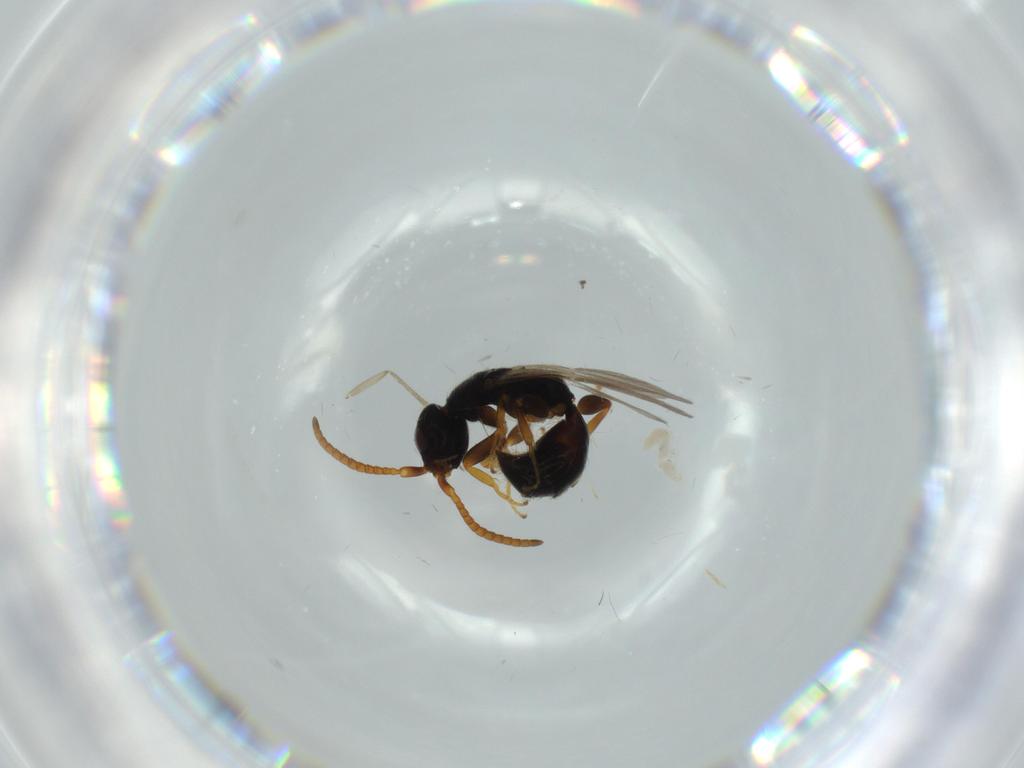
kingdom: Animalia
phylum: Arthropoda
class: Insecta
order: Hymenoptera
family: Bethylidae
